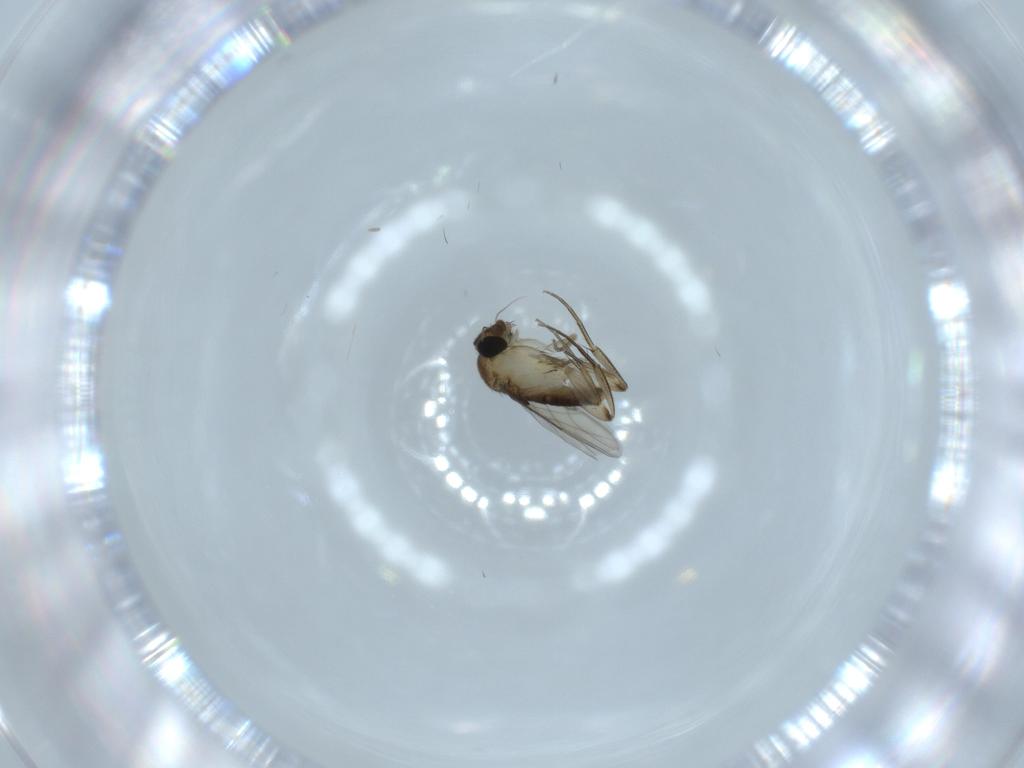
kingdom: Animalia
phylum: Arthropoda
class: Insecta
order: Diptera
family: Phoridae
